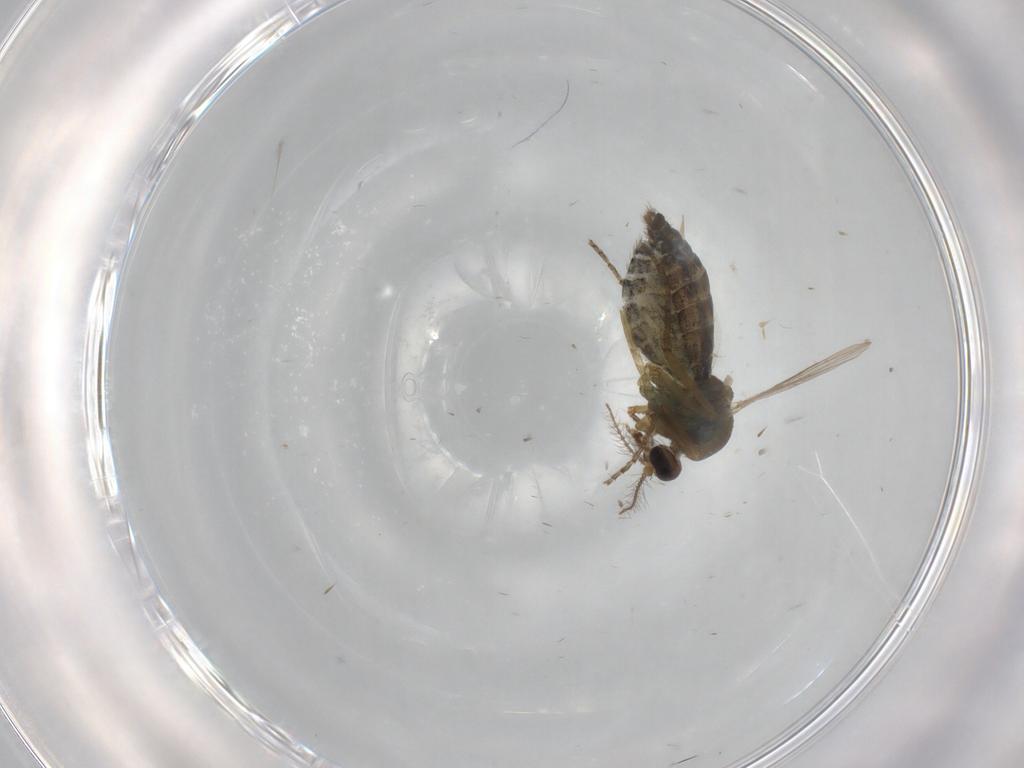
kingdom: Animalia
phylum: Arthropoda
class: Insecta
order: Diptera
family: Ceratopogonidae
